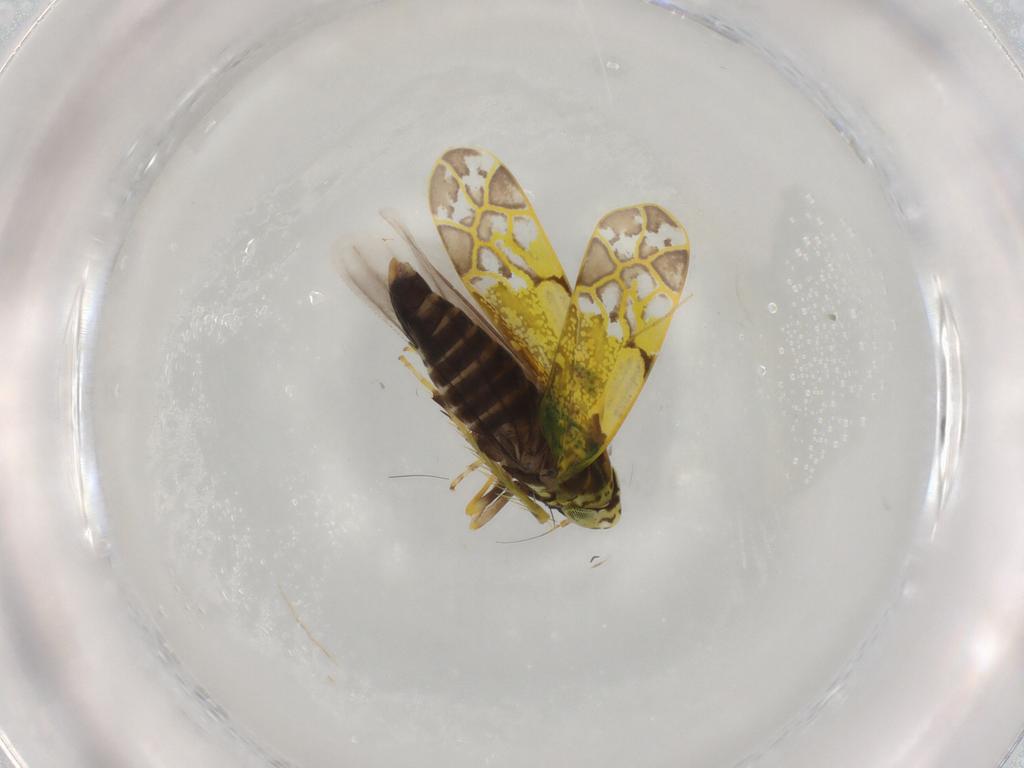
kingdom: Animalia
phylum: Arthropoda
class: Insecta
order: Hemiptera
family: Cicadellidae
